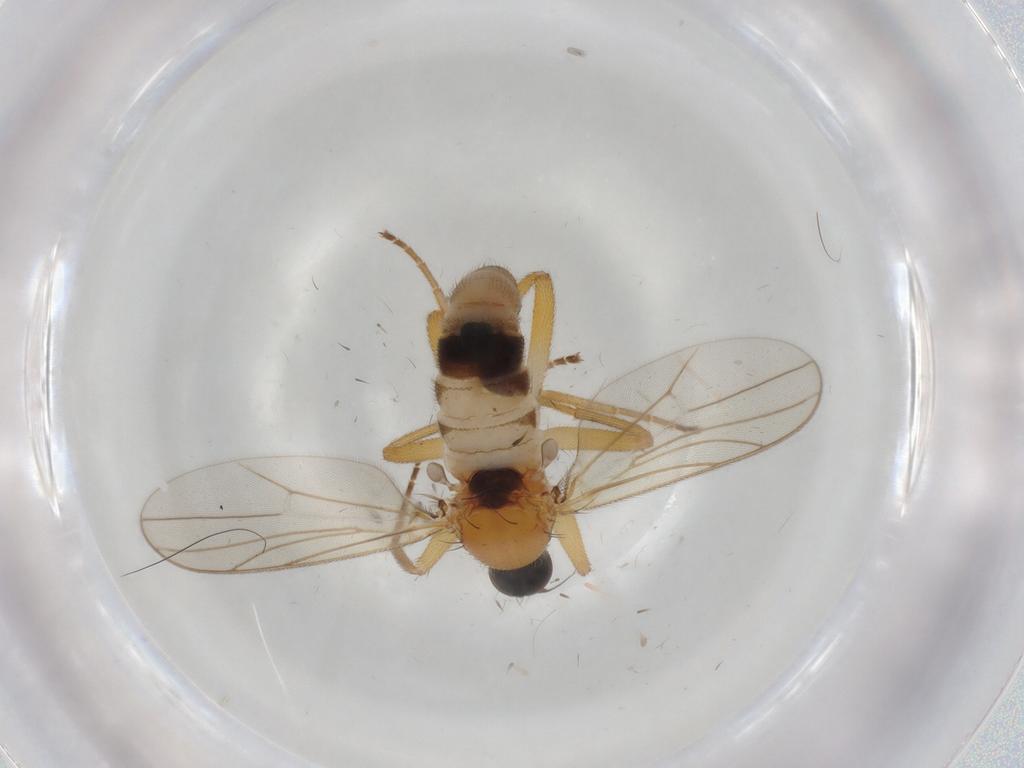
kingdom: Animalia
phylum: Arthropoda
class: Insecta
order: Diptera
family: Hybotidae
